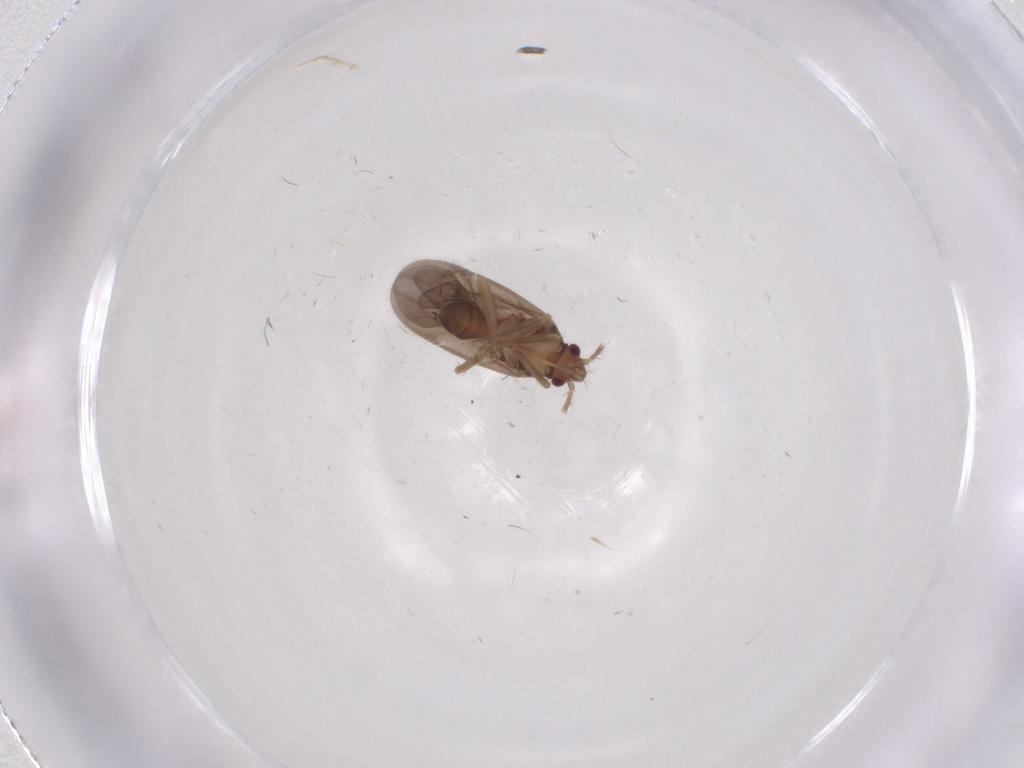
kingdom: Animalia
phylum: Arthropoda
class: Insecta
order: Hemiptera
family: Ceratocombidae
